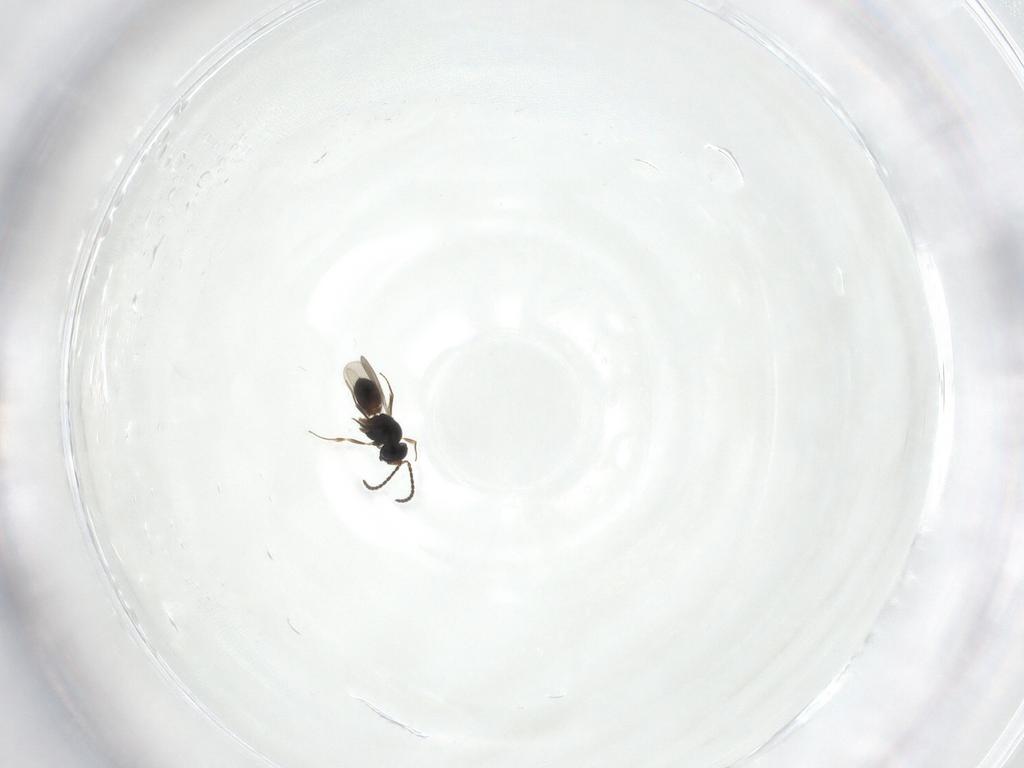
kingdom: Animalia
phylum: Arthropoda
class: Insecta
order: Hymenoptera
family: Scelionidae
